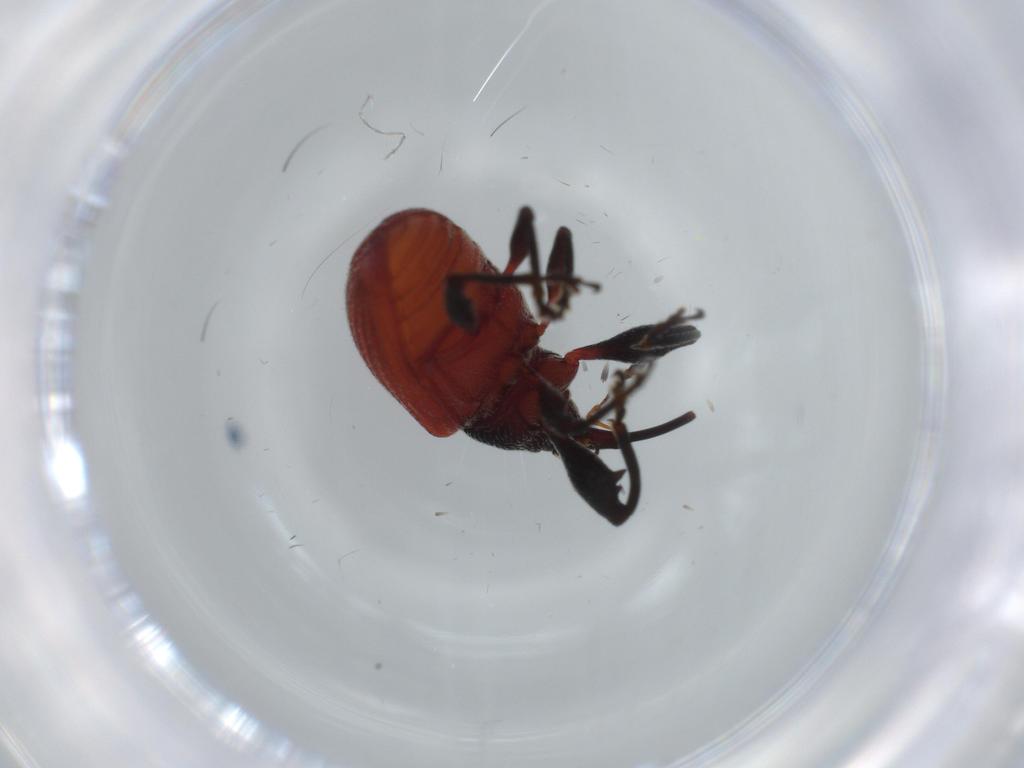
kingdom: Animalia
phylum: Arthropoda
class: Insecta
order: Coleoptera
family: Curculionidae
